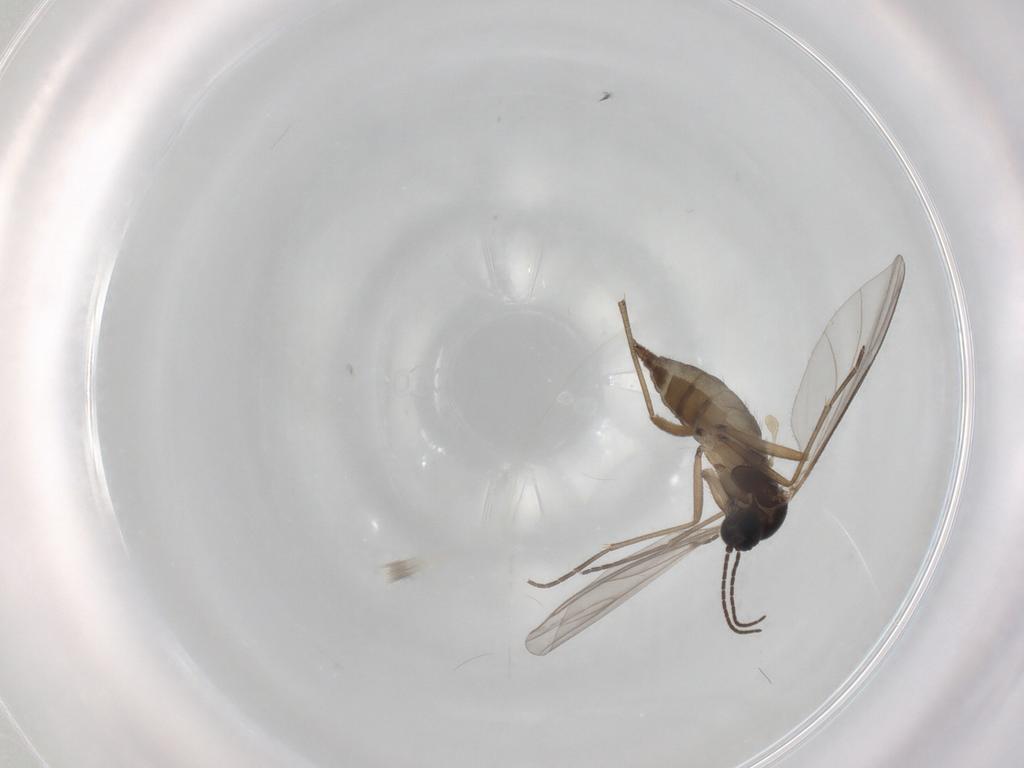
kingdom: Animalia
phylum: Arthropoda
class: Insecta
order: Diptera
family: Sciaridae
